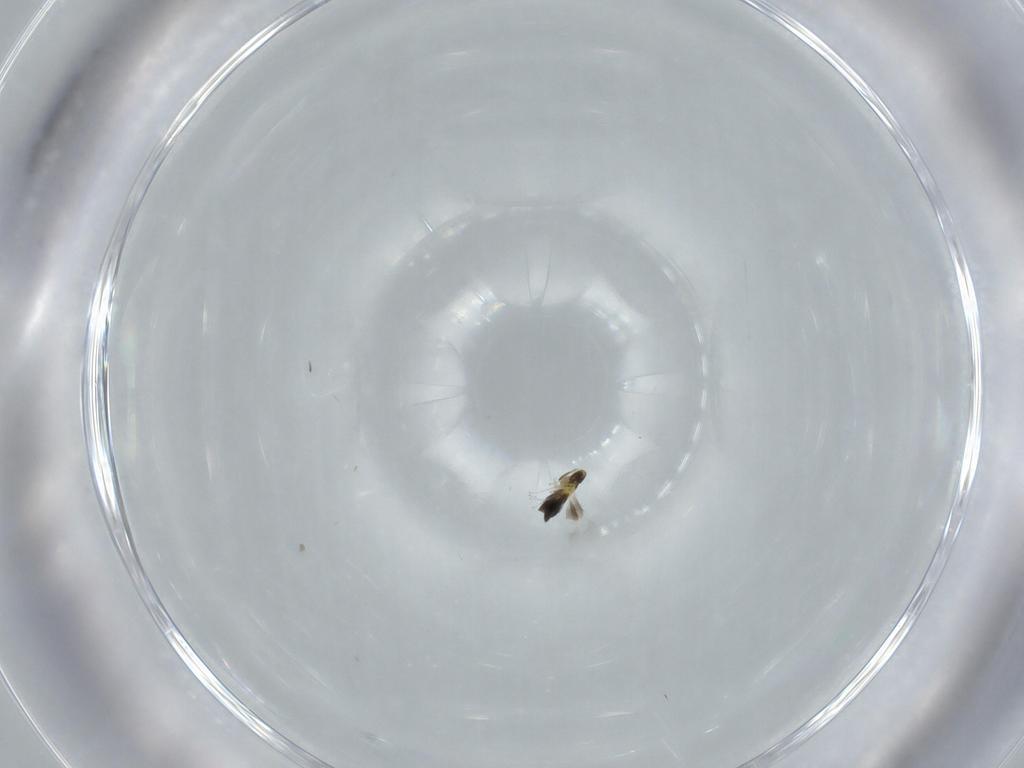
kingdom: Animalia
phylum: Arthropoda
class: Insecta
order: Hymenoptera
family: Signiphoridae
